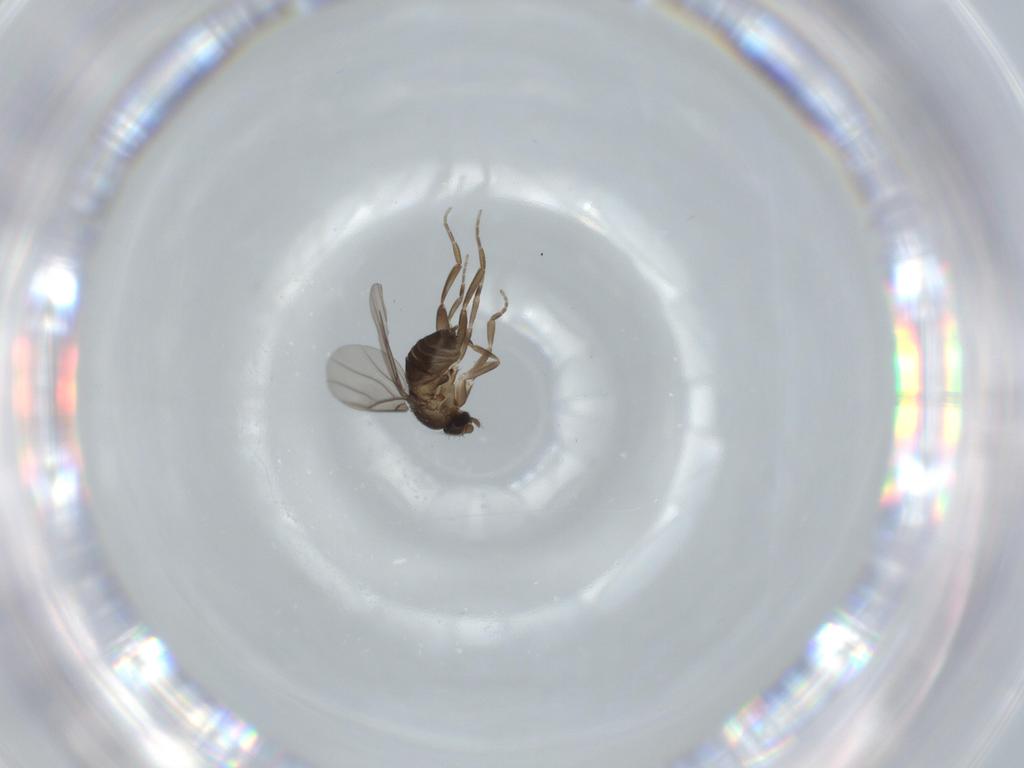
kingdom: Animalia
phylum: Arthropoda
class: Insecta
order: Diptera
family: Phoridae
